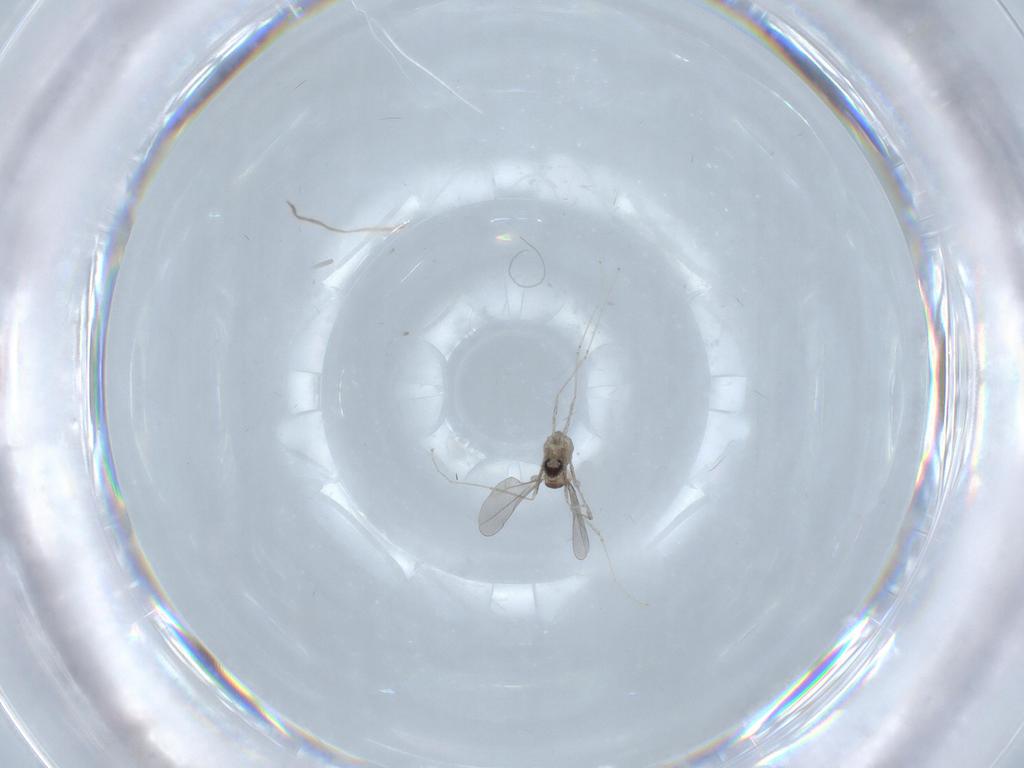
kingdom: Animalia
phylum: Arthropoda
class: Insecta
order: Diptera
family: Cecidomyiidae
